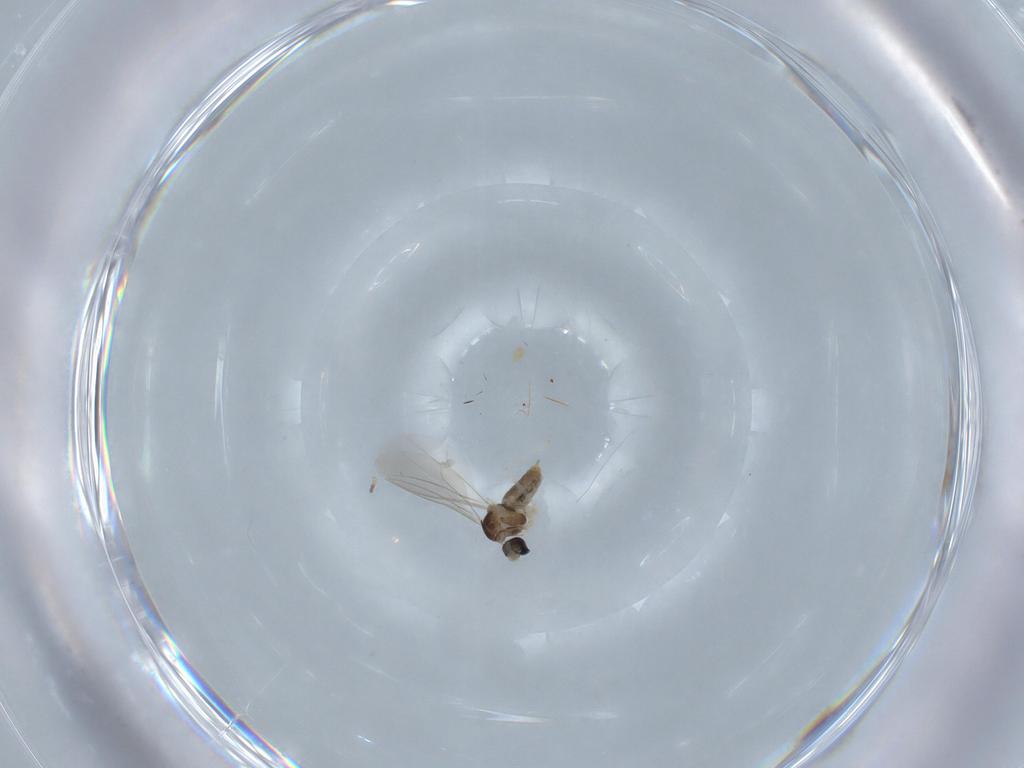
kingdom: Animalia
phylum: Arthropoda
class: Insecta
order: Diptera
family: Cecidomyiidae
